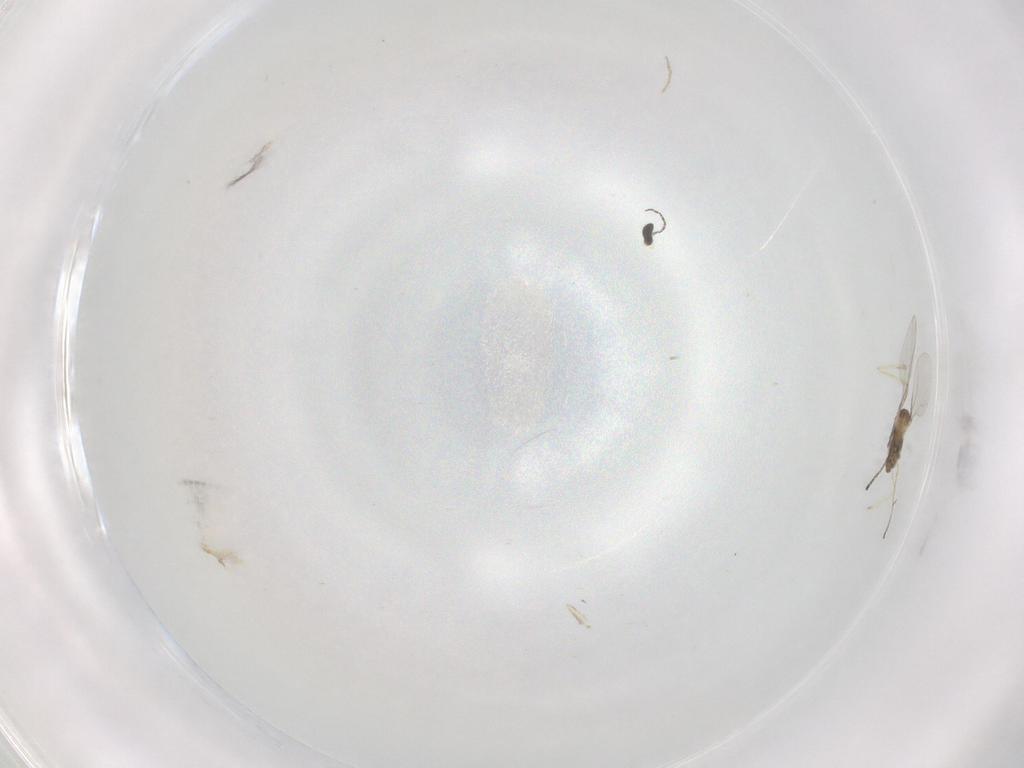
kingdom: Animalia
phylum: Arthropoda
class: Insecta
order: Diptera
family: Cecidomyiidae
